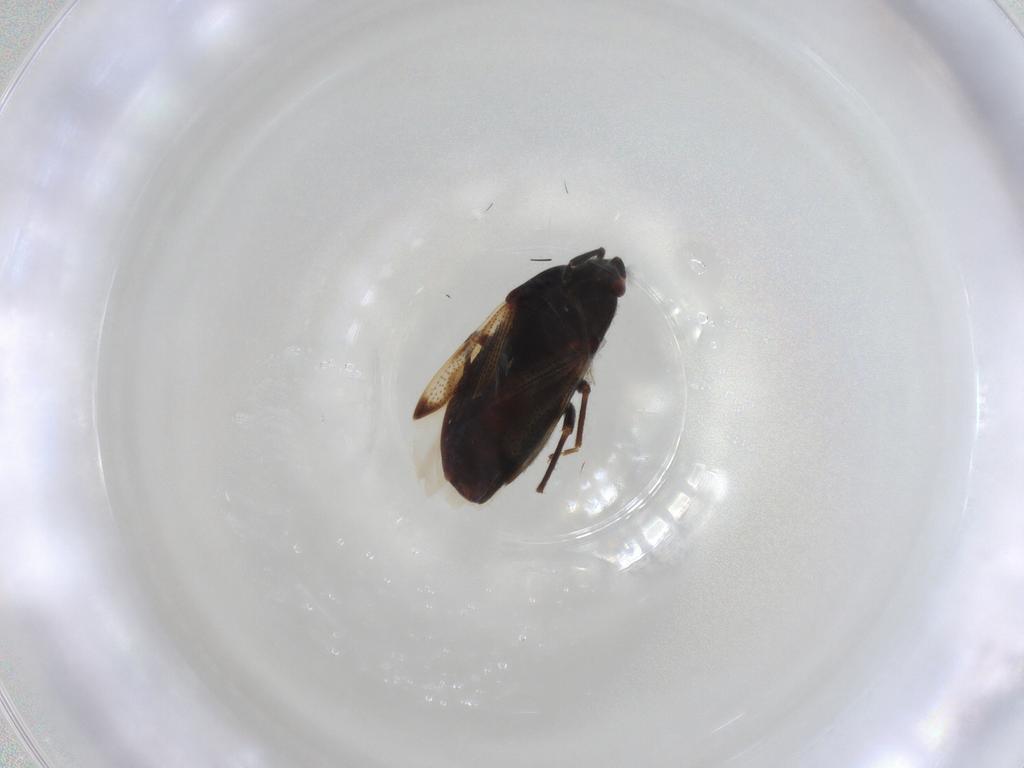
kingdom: Animalia
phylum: Arthropoda
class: Insecta
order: Hemiptera
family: Rhyparochromidae
